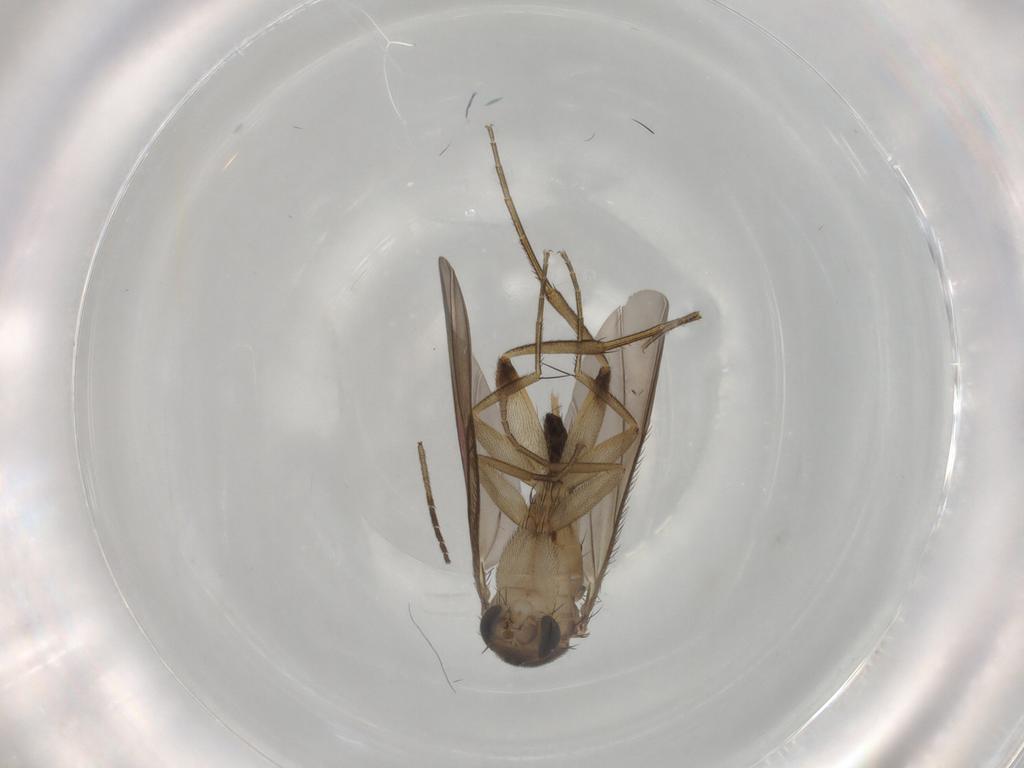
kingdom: Animalia
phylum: Arthropoda
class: Insecta
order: Diptera
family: Phoridae
